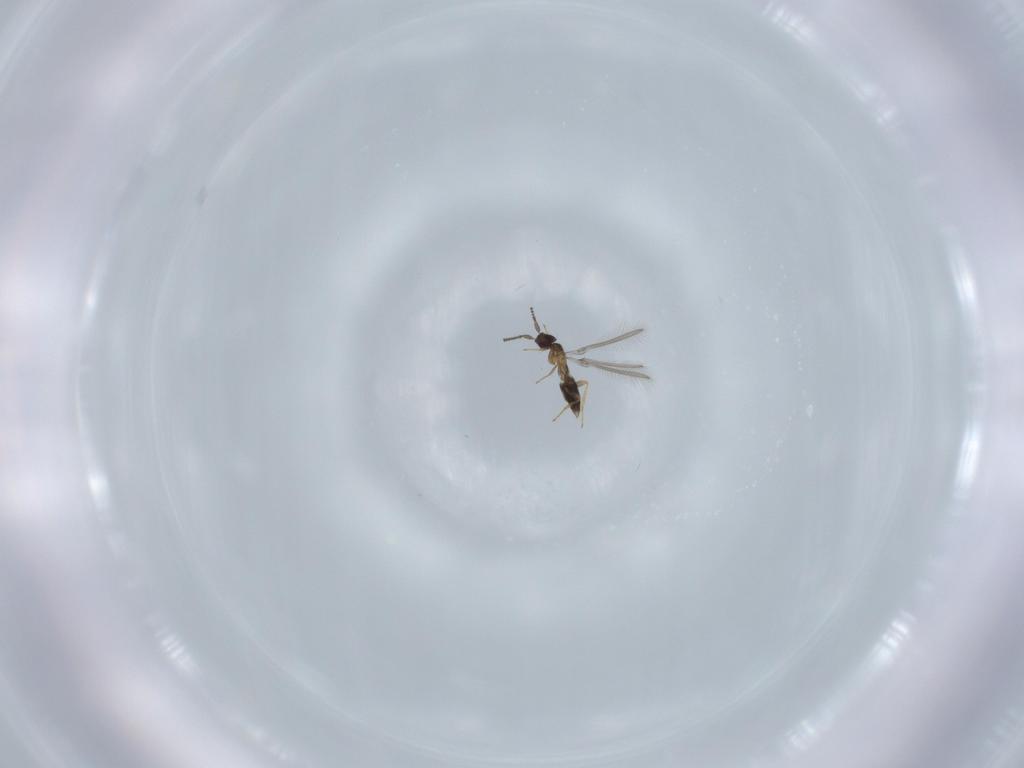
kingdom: Animalia
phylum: Arthropoda
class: Insecta
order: Hymenoptera
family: Mymaridae
